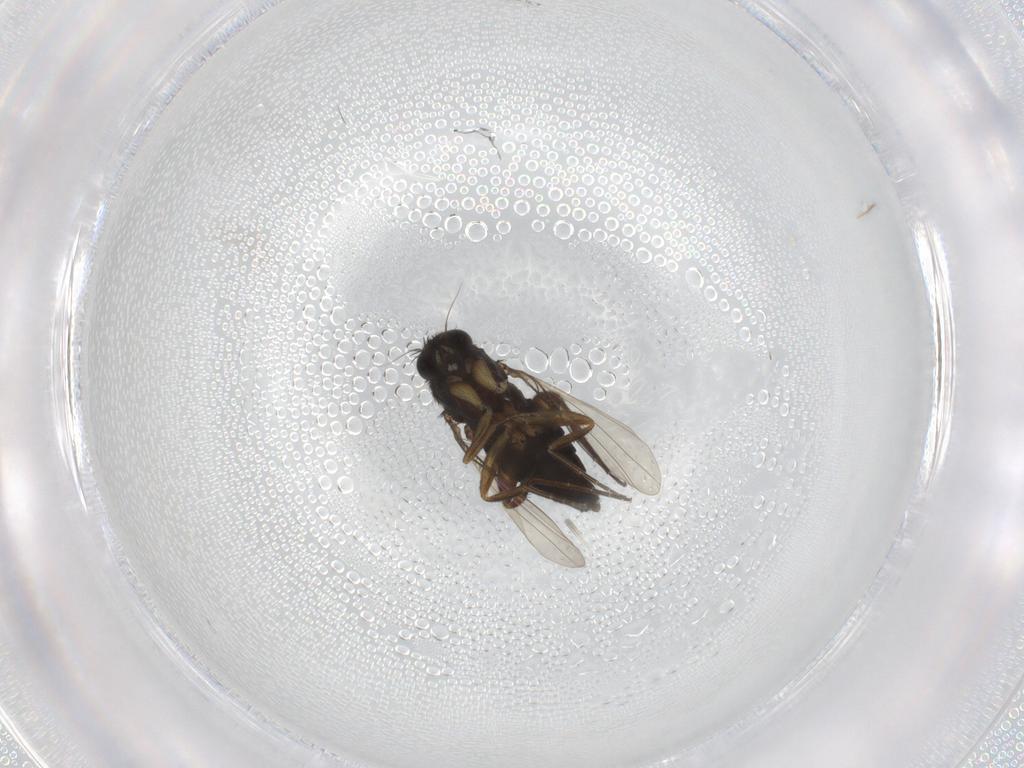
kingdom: Animalia
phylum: Arthropoda
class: Insecta
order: Diptera
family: Phoridae
